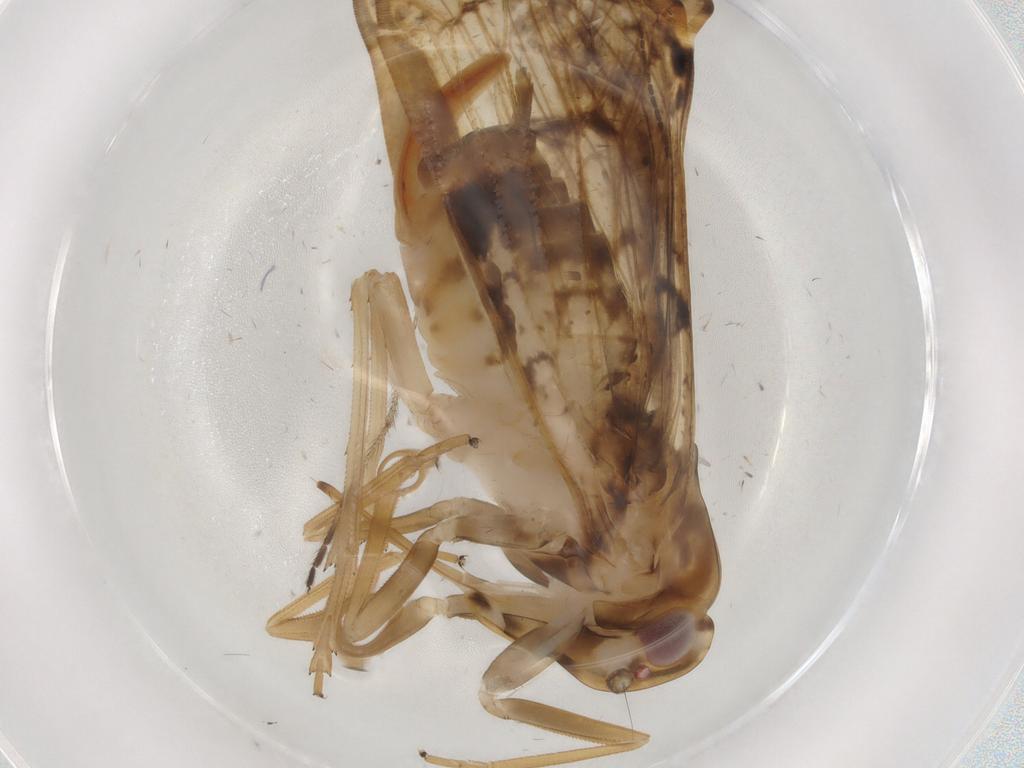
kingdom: Animalia
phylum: Arthropoda
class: Insecta
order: Hemiptera
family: Cixiidae
